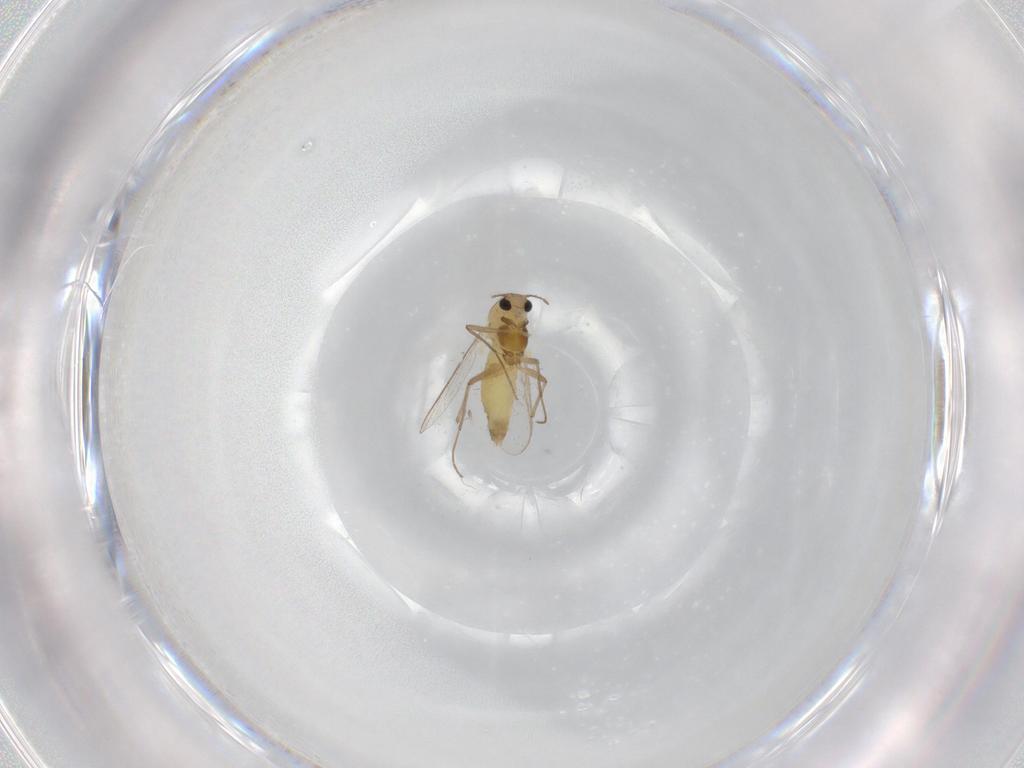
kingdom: Animalia
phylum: Arthropoda
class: Insecta
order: Diptera
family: Chironomidae
